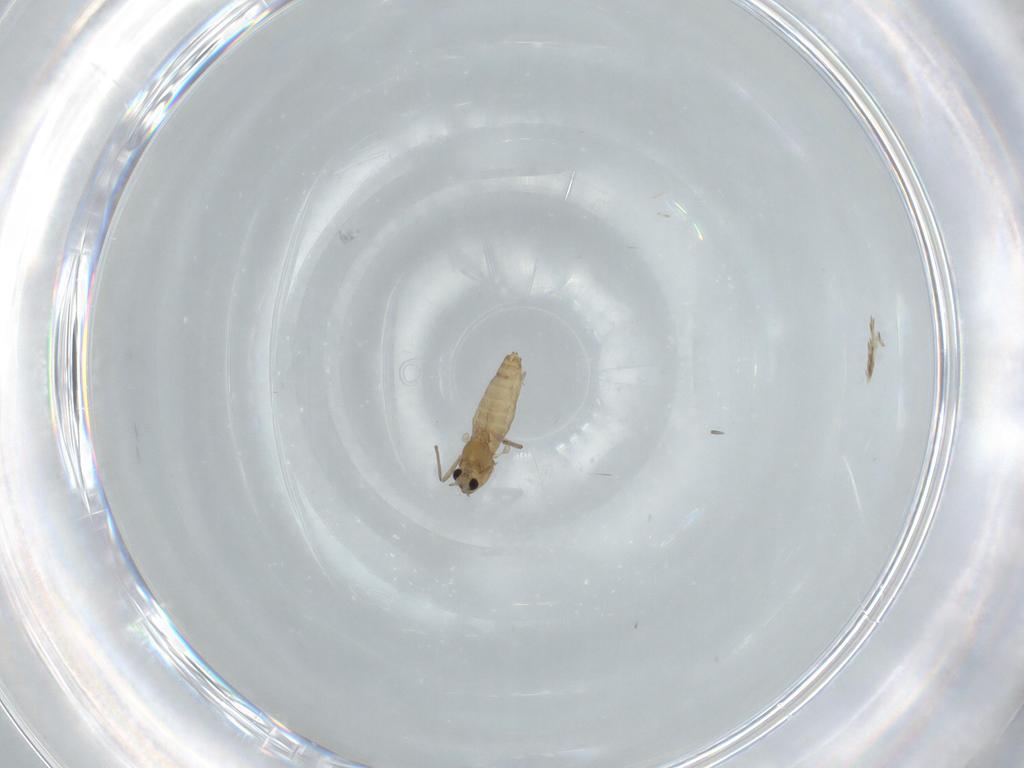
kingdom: Animalia
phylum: Arthropoda
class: Insecta
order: Diptera
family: Chironomidae
